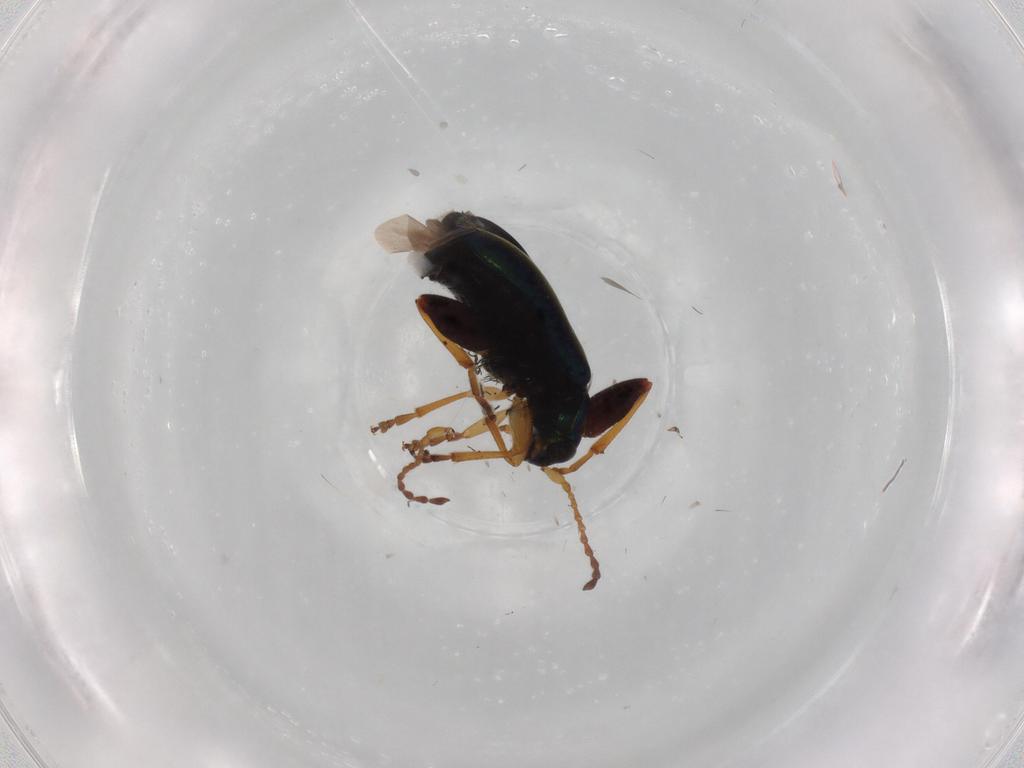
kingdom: Animalia
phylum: Arthropoda
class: Insecta
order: Coleoptera
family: Chrysomelidae
